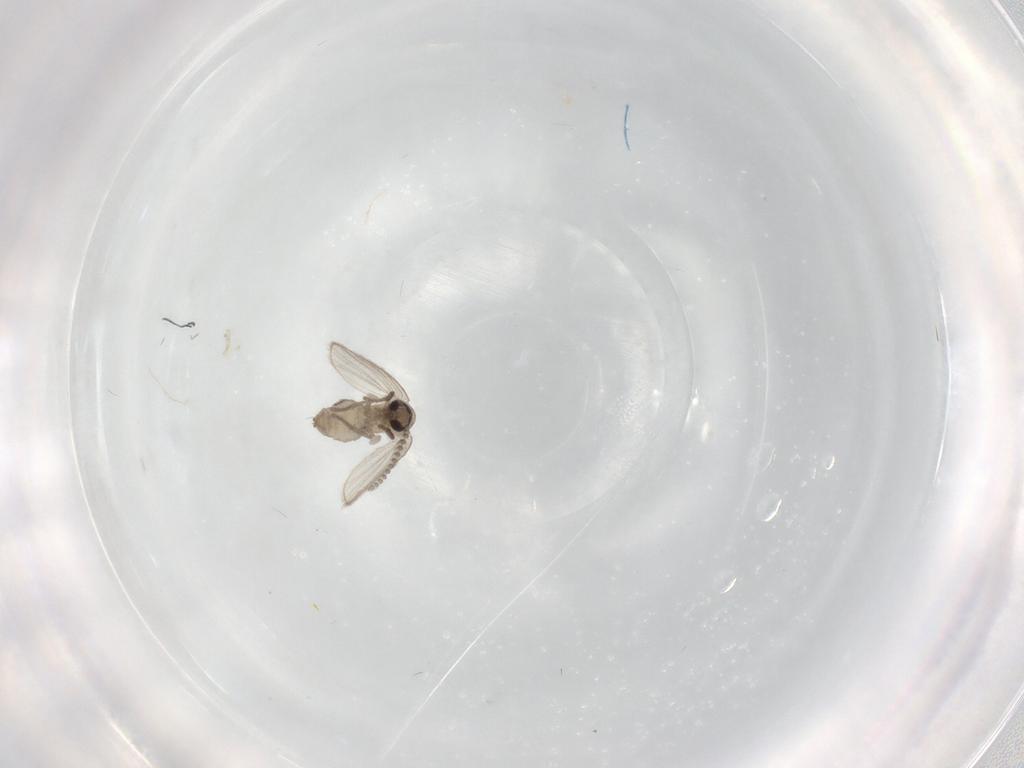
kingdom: Animalia
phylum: Arthropoda
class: Insecta
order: Diptera
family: Psychodidae
